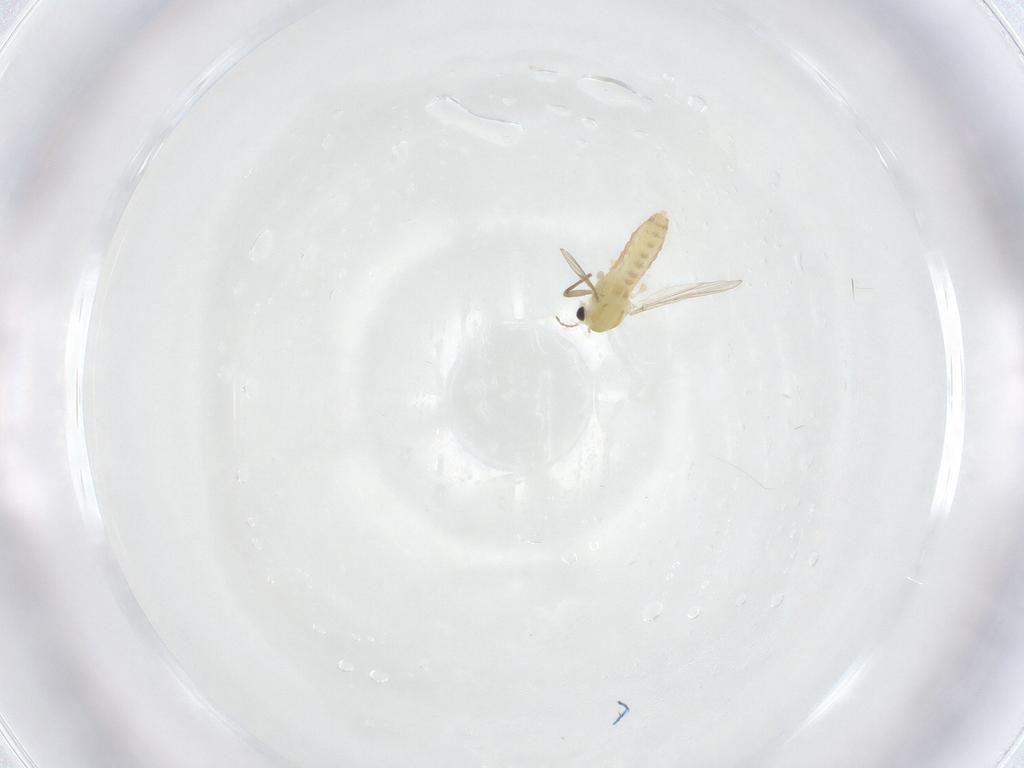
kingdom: Animalia
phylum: Arthropoda
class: Insecta
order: Diptera
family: Chironomidae
